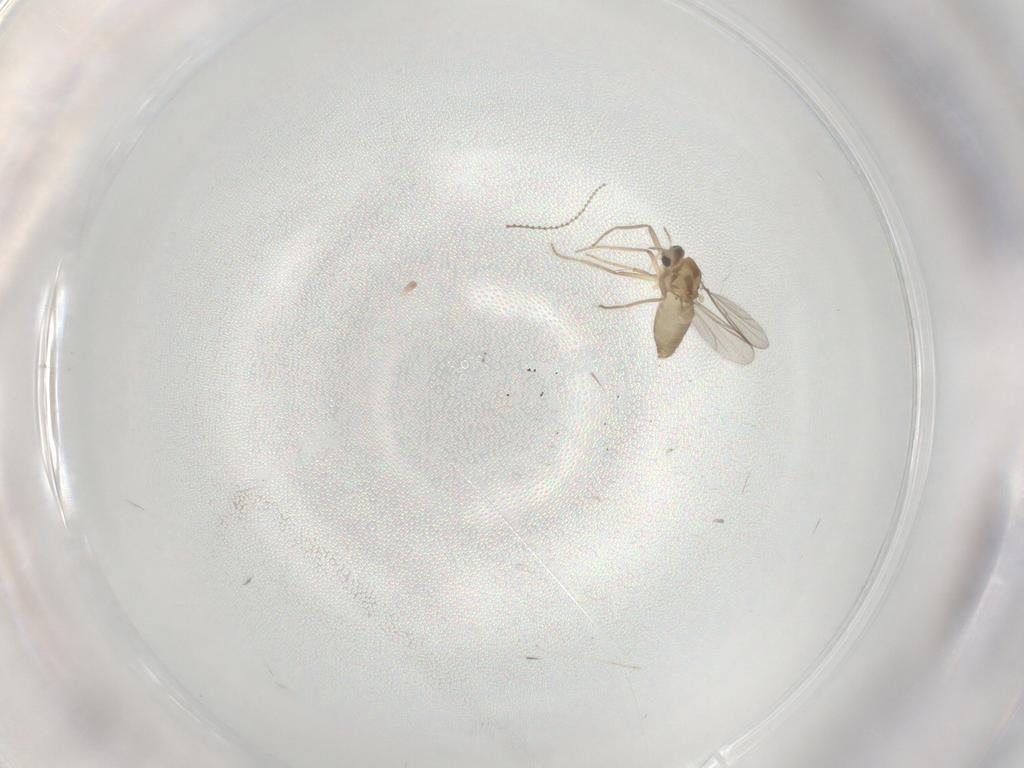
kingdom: Animalia
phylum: Arthropoda
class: Insecta
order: Diptera
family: Chironomidae
